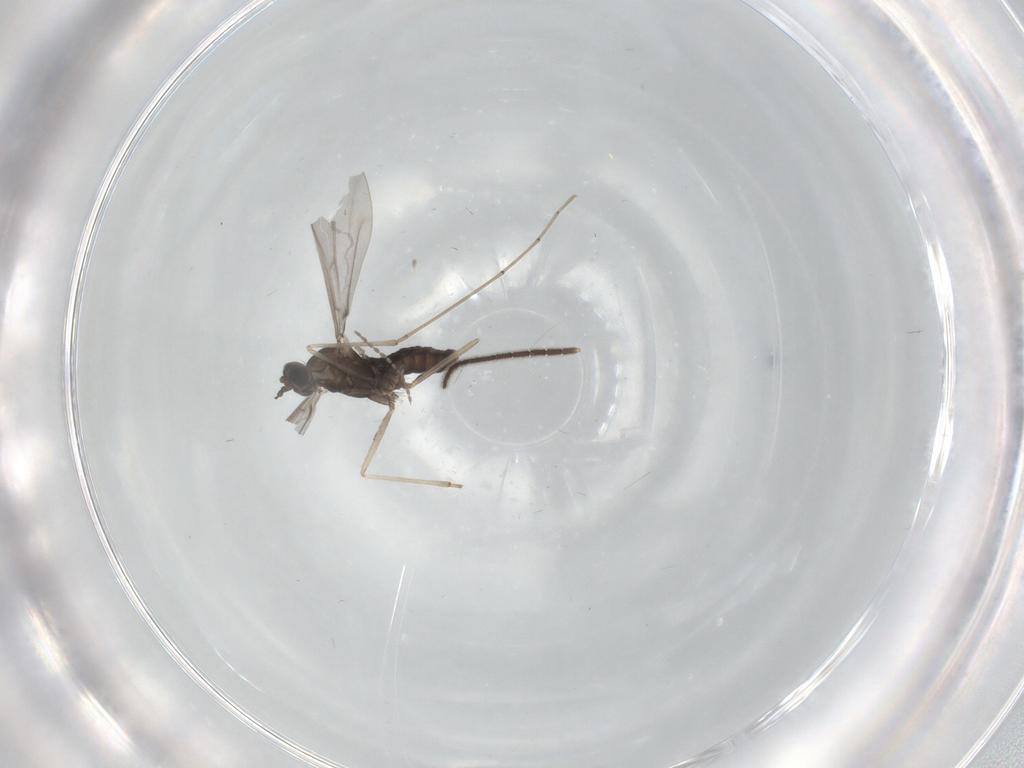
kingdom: Animalia
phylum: Arthropoda
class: Insecta
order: Diptera
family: Cecidomyiidae
